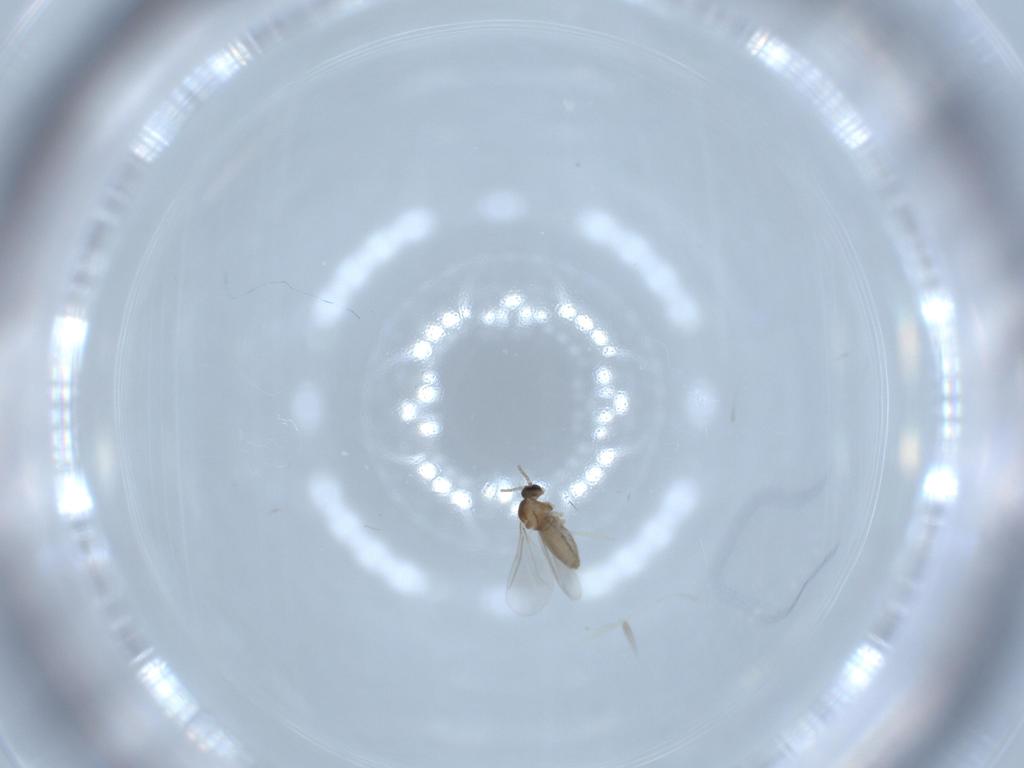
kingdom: Animalia
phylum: Arthropoda
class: Insecta
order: Diptera
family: Cecidomyiidae
